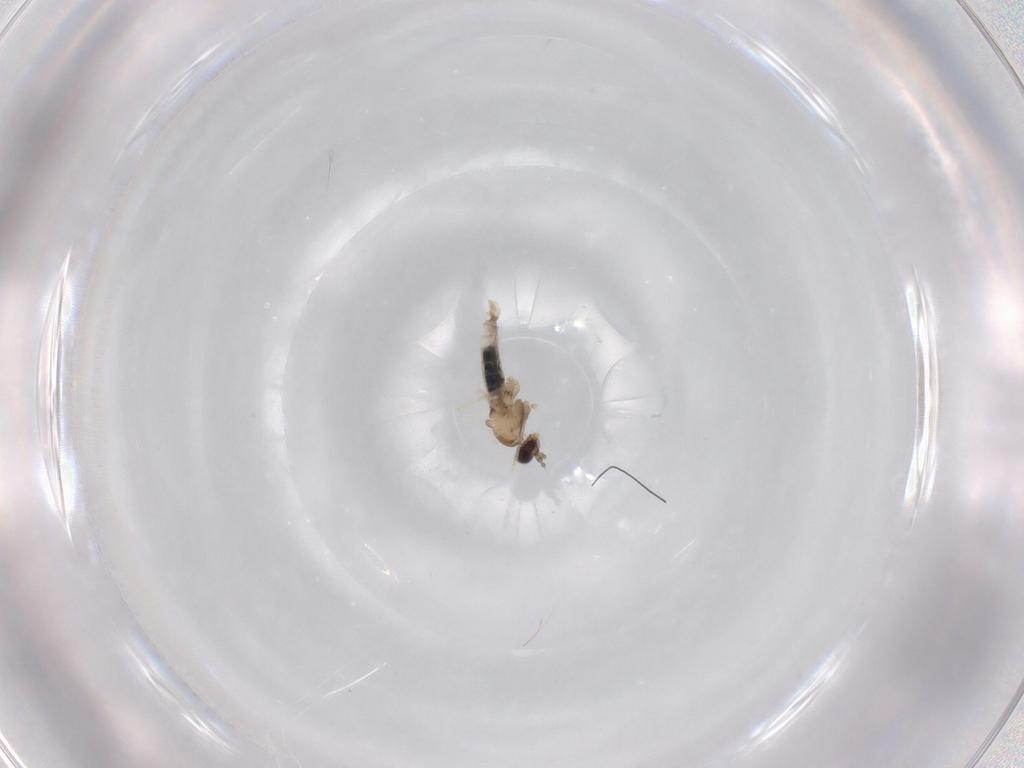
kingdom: Animalia
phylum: Arthropoda
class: Insecta
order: Diptera
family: Cecidomyiidae
